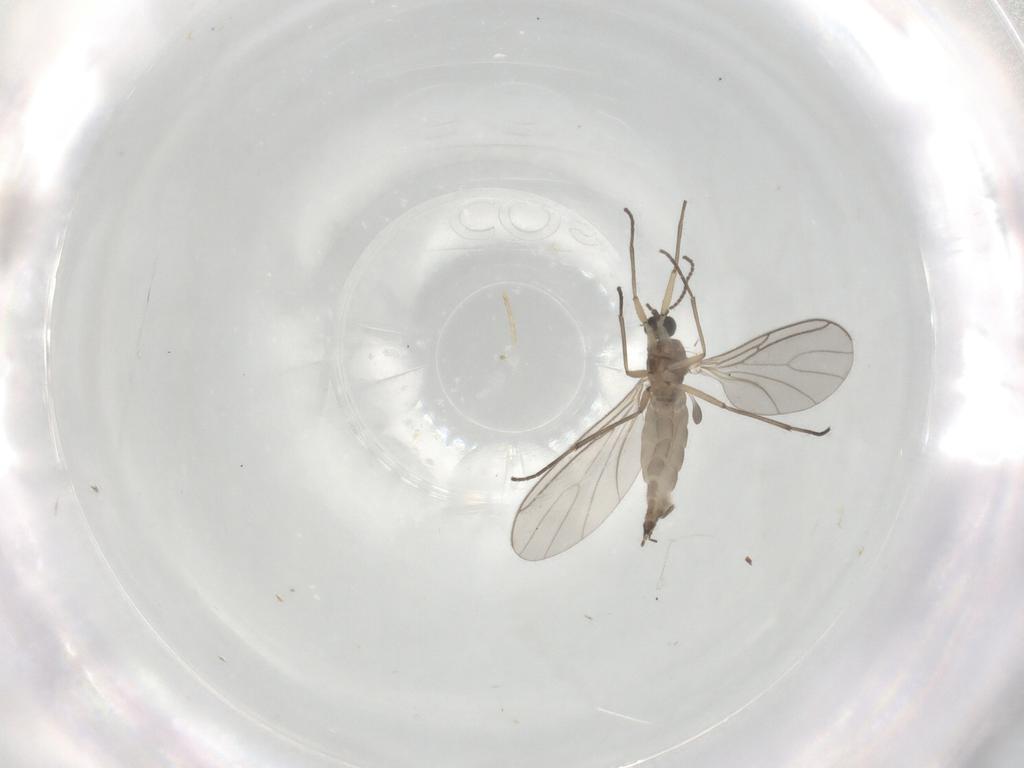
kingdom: Animalia
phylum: Arthropoda
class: Insecta
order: Diptera
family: Sciaridae
